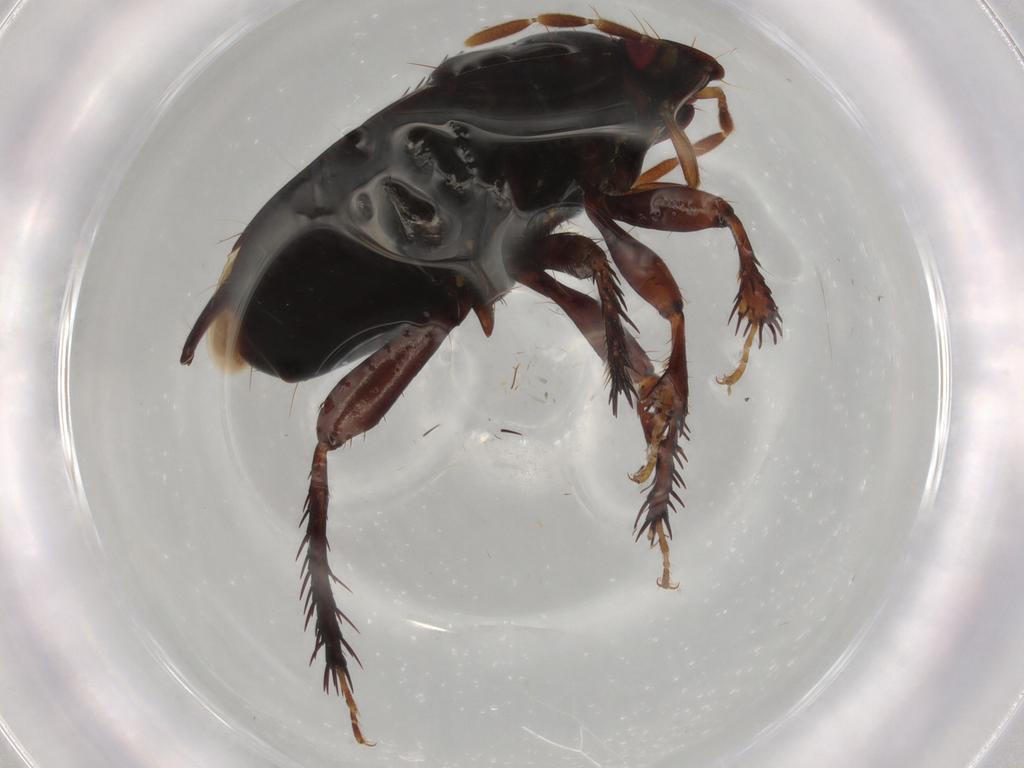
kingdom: Animalia
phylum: Arthropoda
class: Insecta
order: Hemiptera
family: Cydnidae
